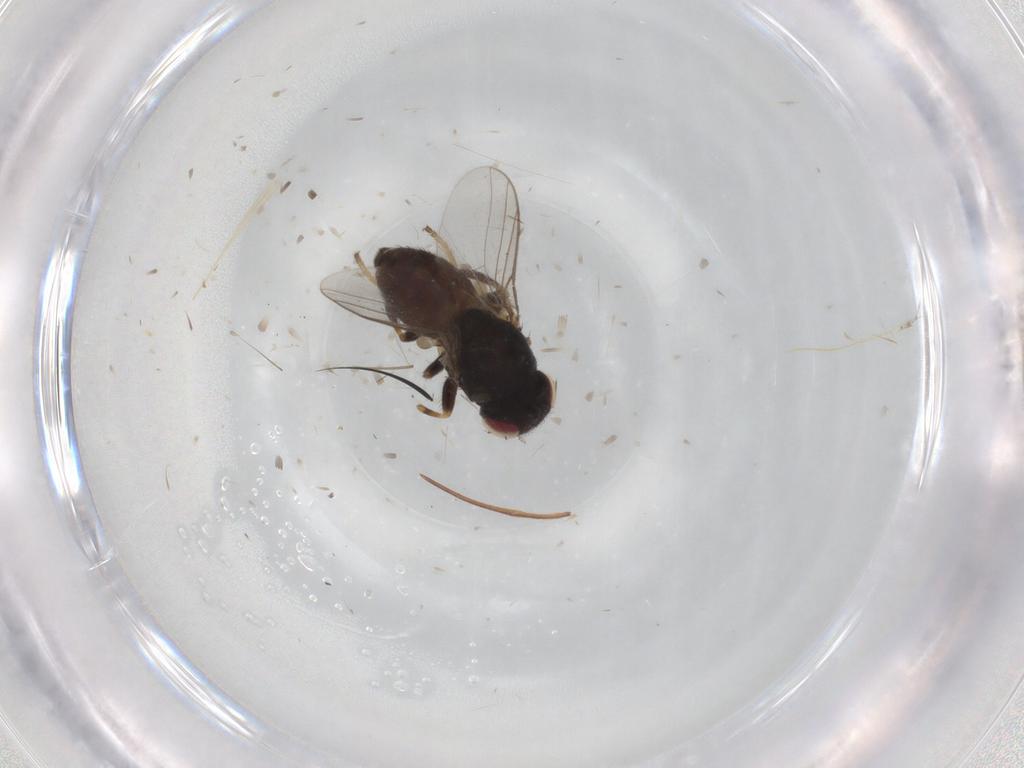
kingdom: Animalia
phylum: Arthropoda
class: Insecta
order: Diptera
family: Chloropidae
